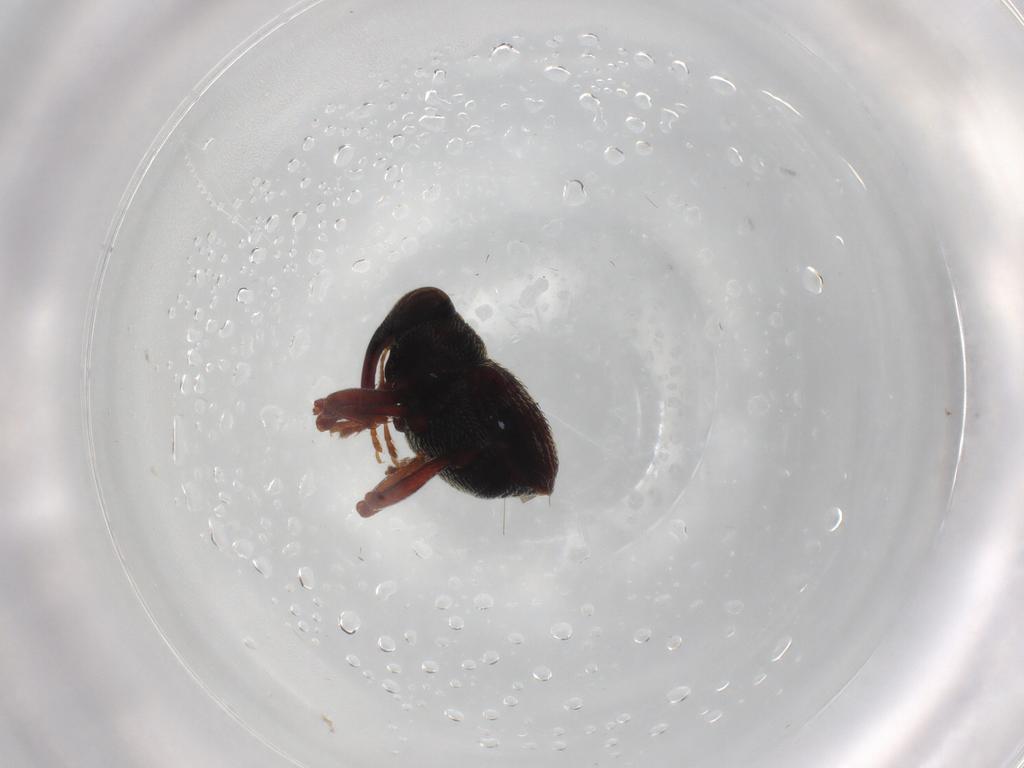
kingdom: Animalia
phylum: Arthropoda
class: Insecta
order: Coleoptera
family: Curculionidae
